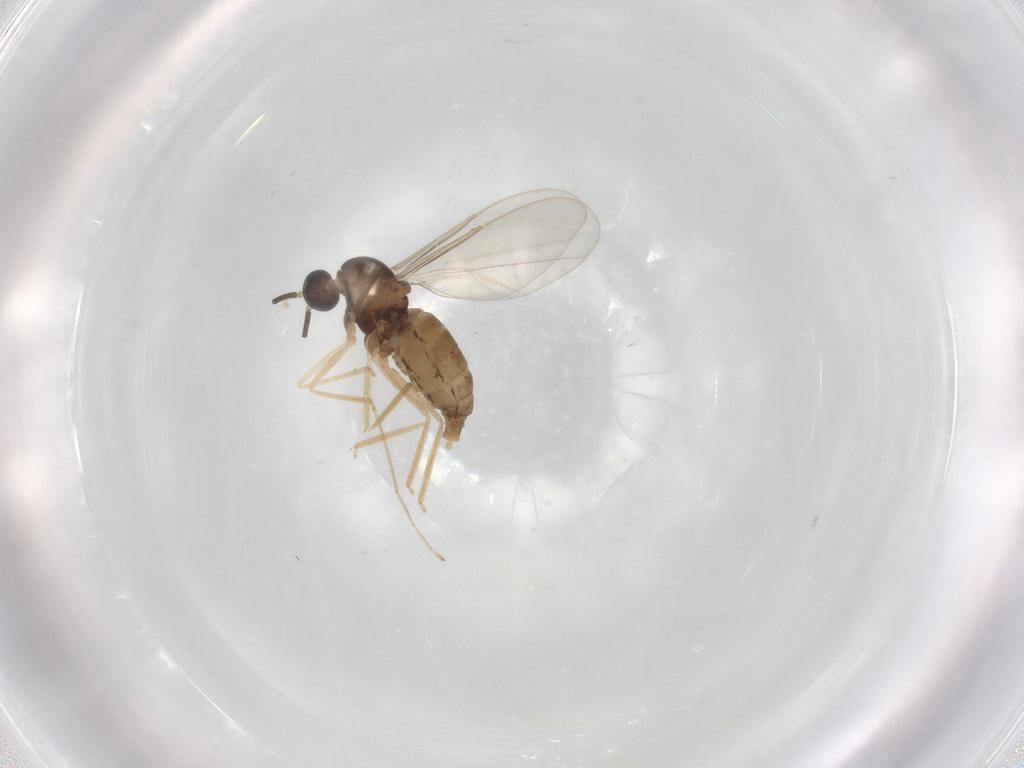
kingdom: Animalia
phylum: Arthropoda
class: Insecta
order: Diptera
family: Cecidomyiidae
